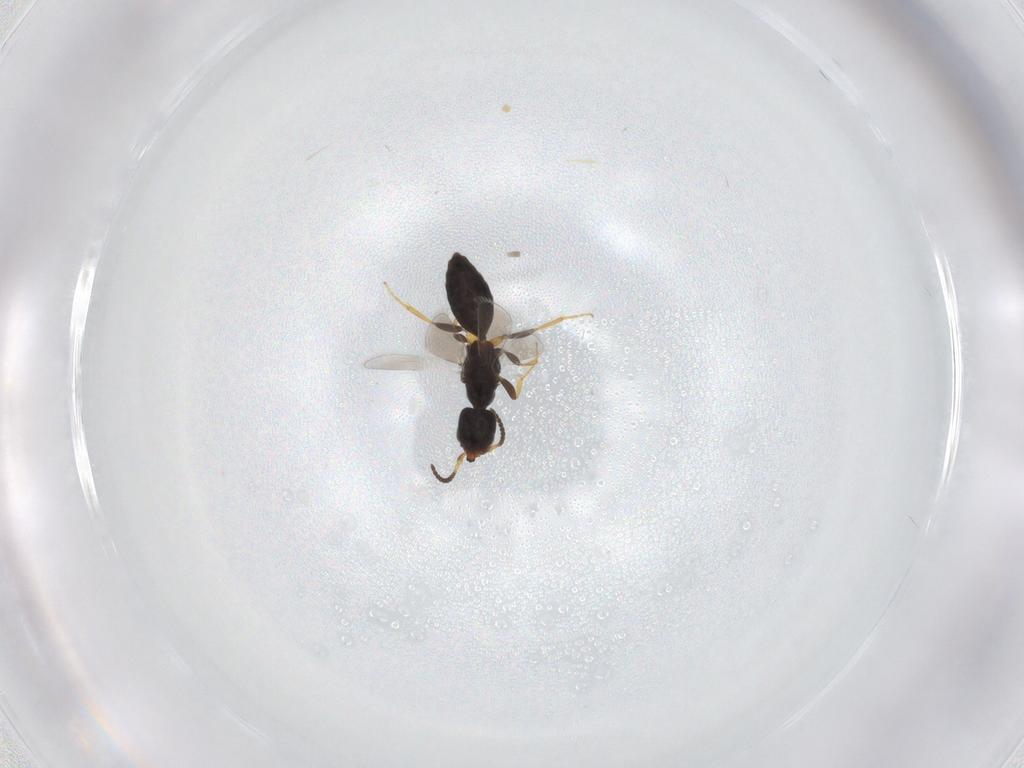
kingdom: Animalia
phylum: Arthropoda
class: Insecta
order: Hymenoptera
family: Bethylidae
